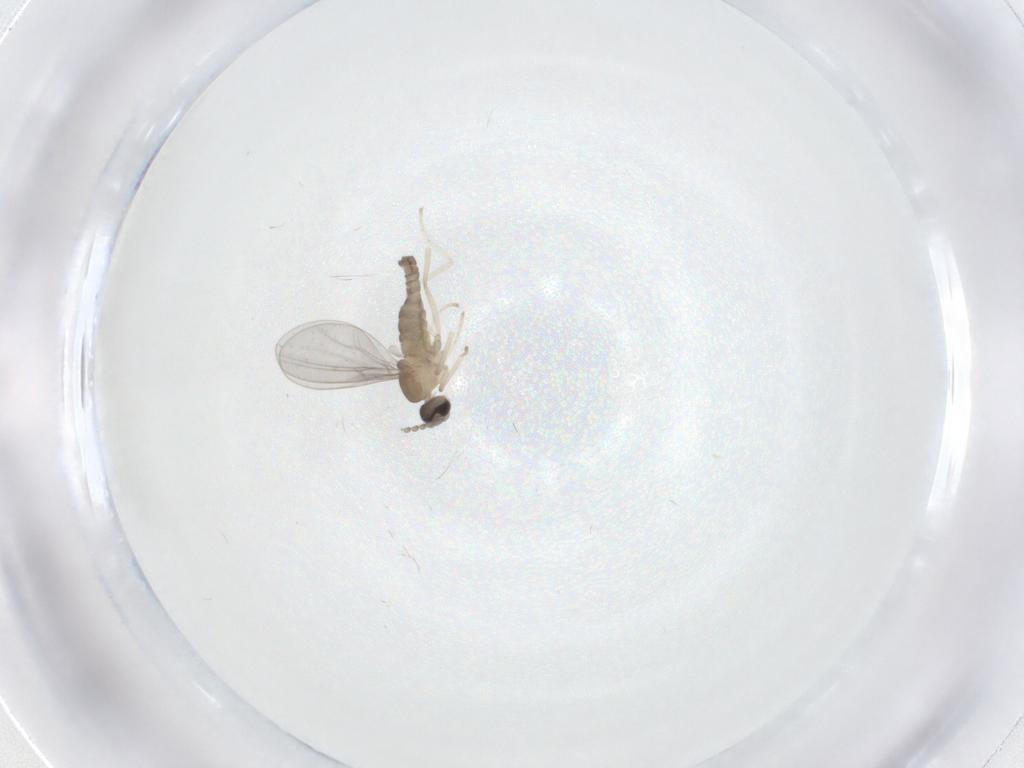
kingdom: Animalia
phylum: Arthropoda
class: Insecta
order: Diptera
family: Cecidomyiidae
